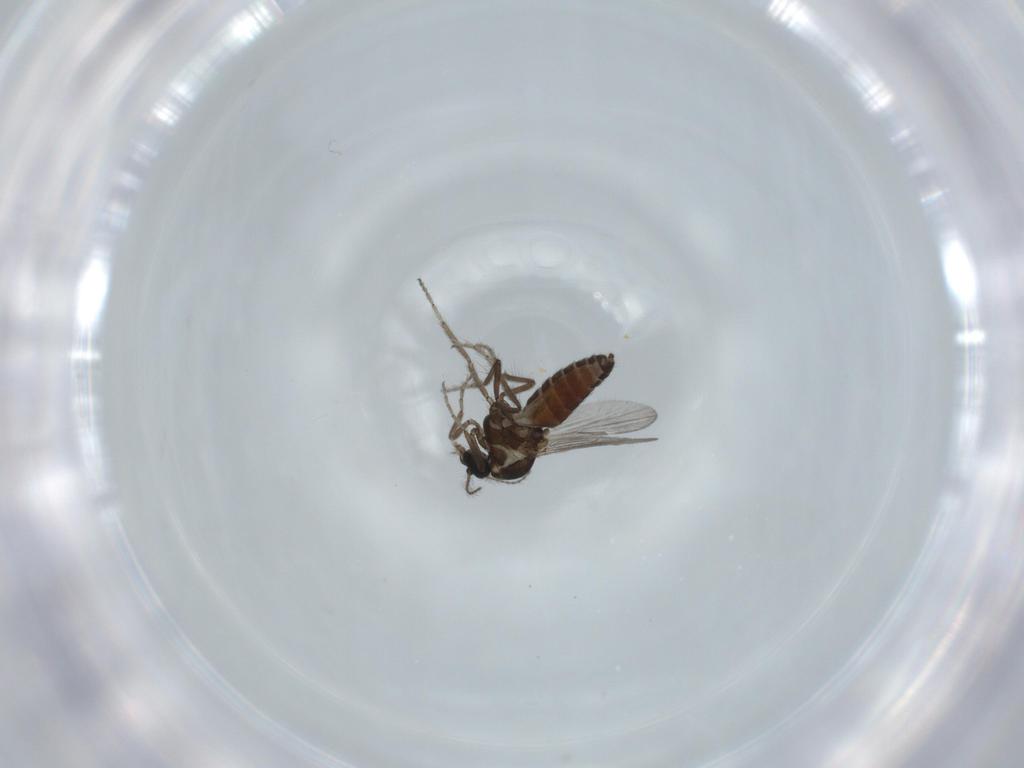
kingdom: Animalia
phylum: Arthropoda
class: Insecta
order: Diptera
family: Ceratopogonidae
